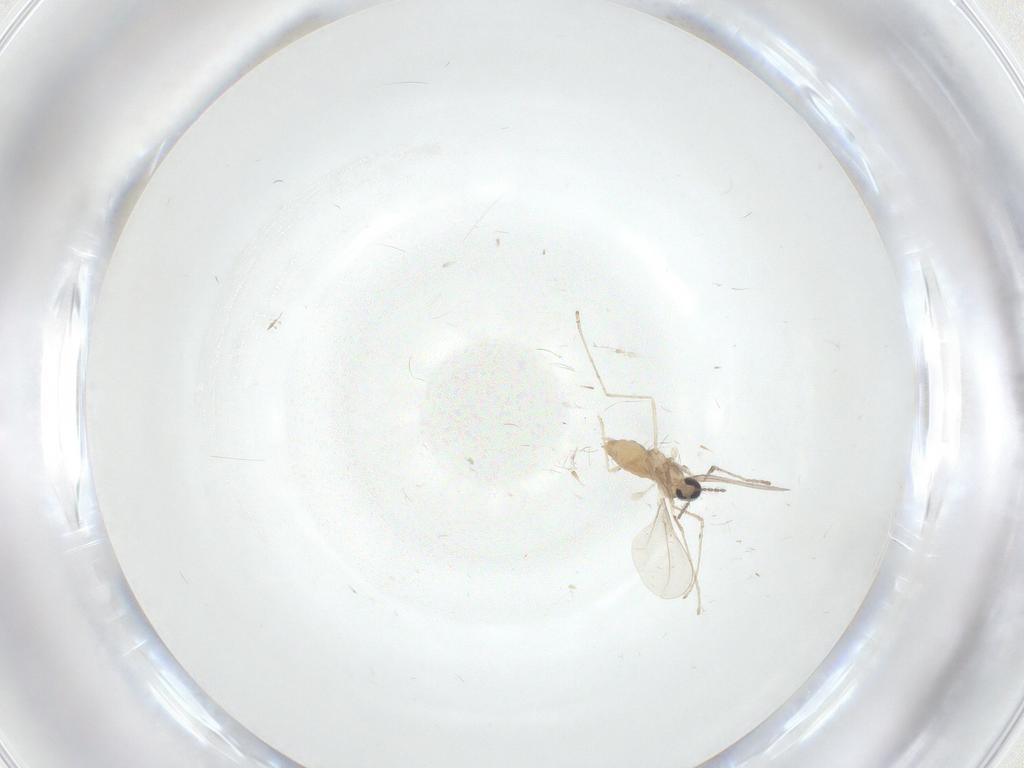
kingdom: Animalia
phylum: Arthropoda
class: Insecta
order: Diptera
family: Cecidomyiidae
